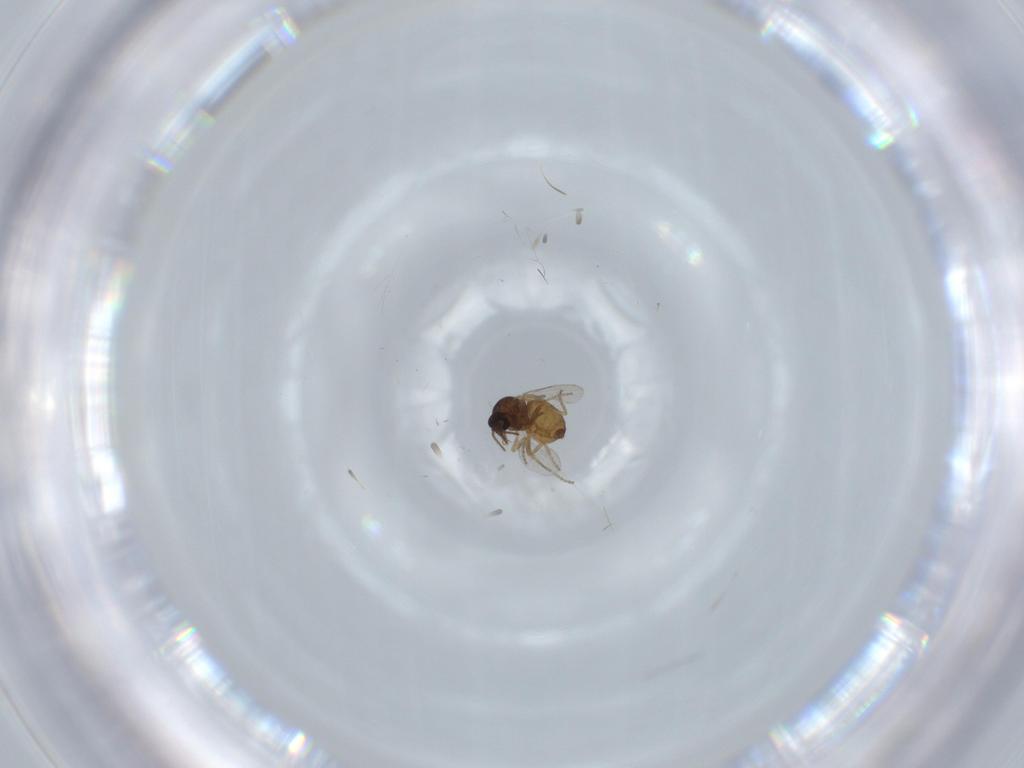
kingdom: Animalia
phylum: Arthropoda
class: Insecta
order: Diptera
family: Ceratopogonidae
